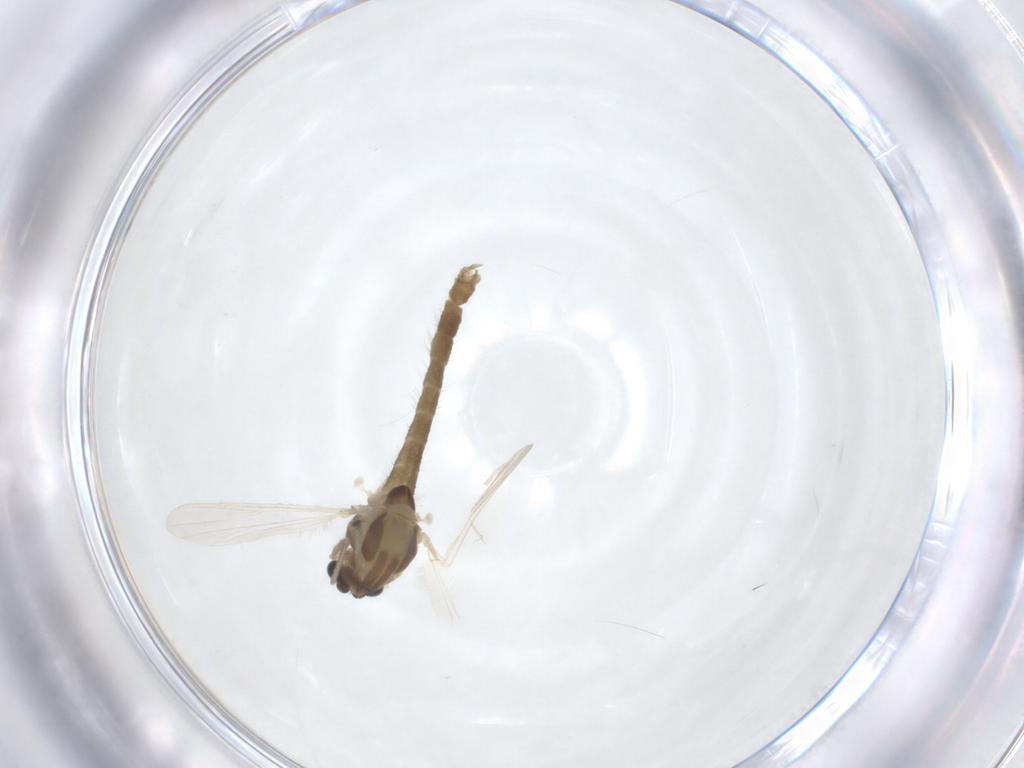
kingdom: Animalia
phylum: Arthropoda
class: Insecta
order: Diptera
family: Chironomidae
